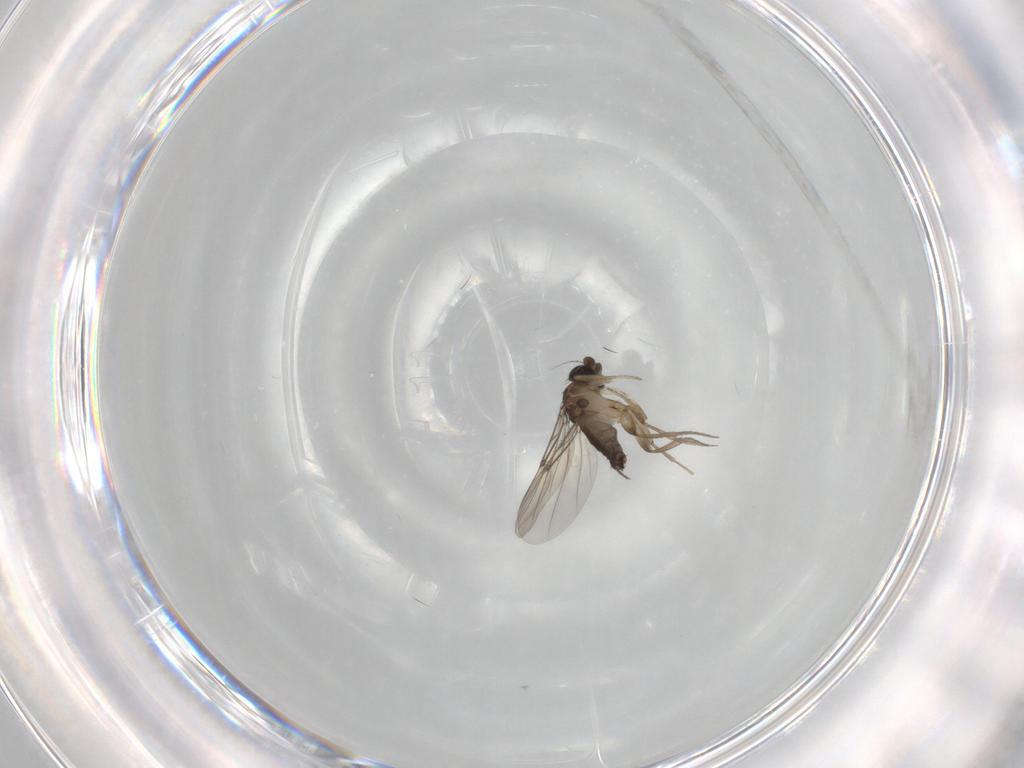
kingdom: Animalia
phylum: Arthropoda
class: Insecta
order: Diptera
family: Phoridae
